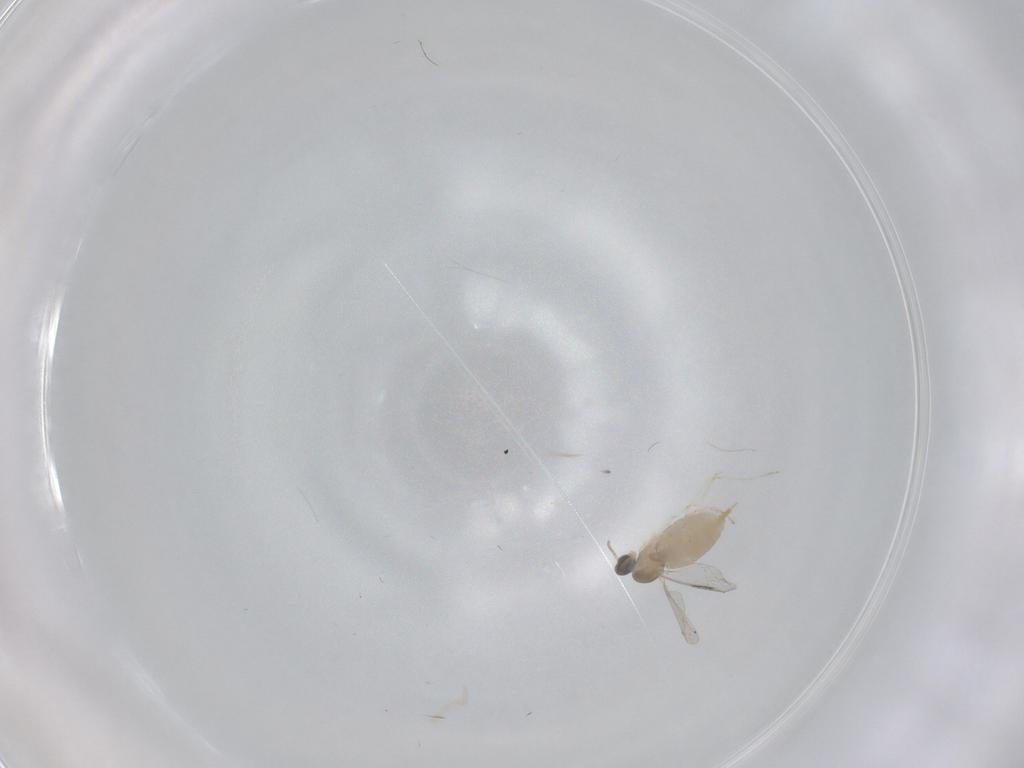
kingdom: Animalia
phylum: Arthropoda
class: Insecta
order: Diptera
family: Cecidomyiidae
